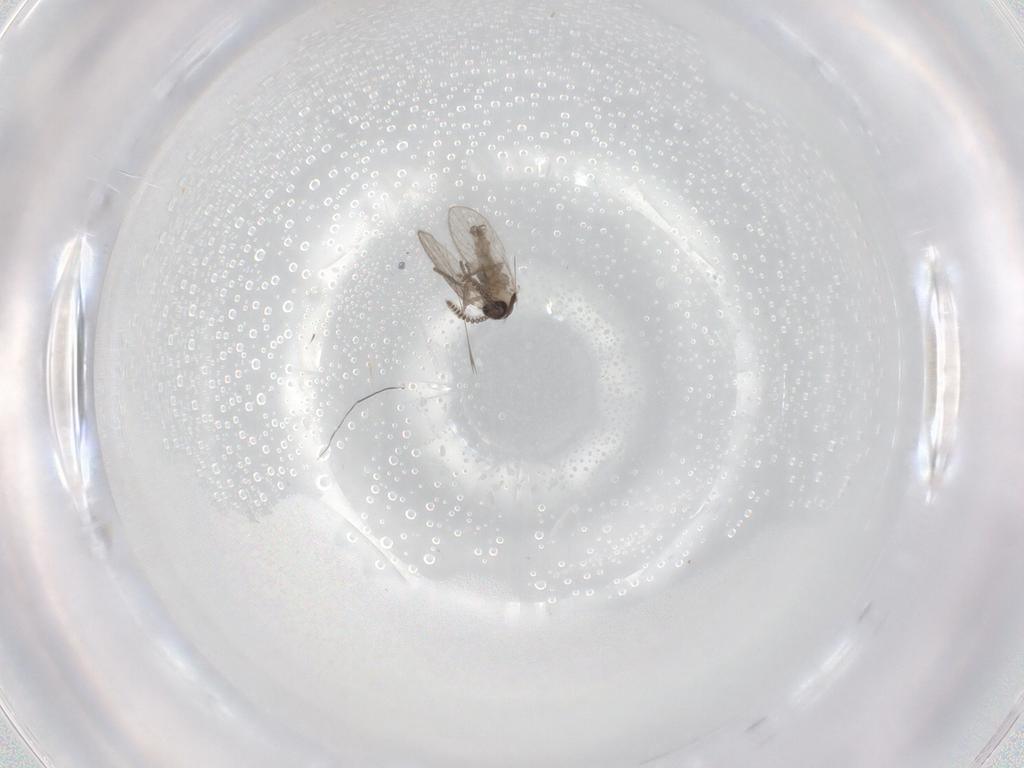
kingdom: Animalia
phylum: Arthropoda
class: Insecta
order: Diptera
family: Psychodidae
